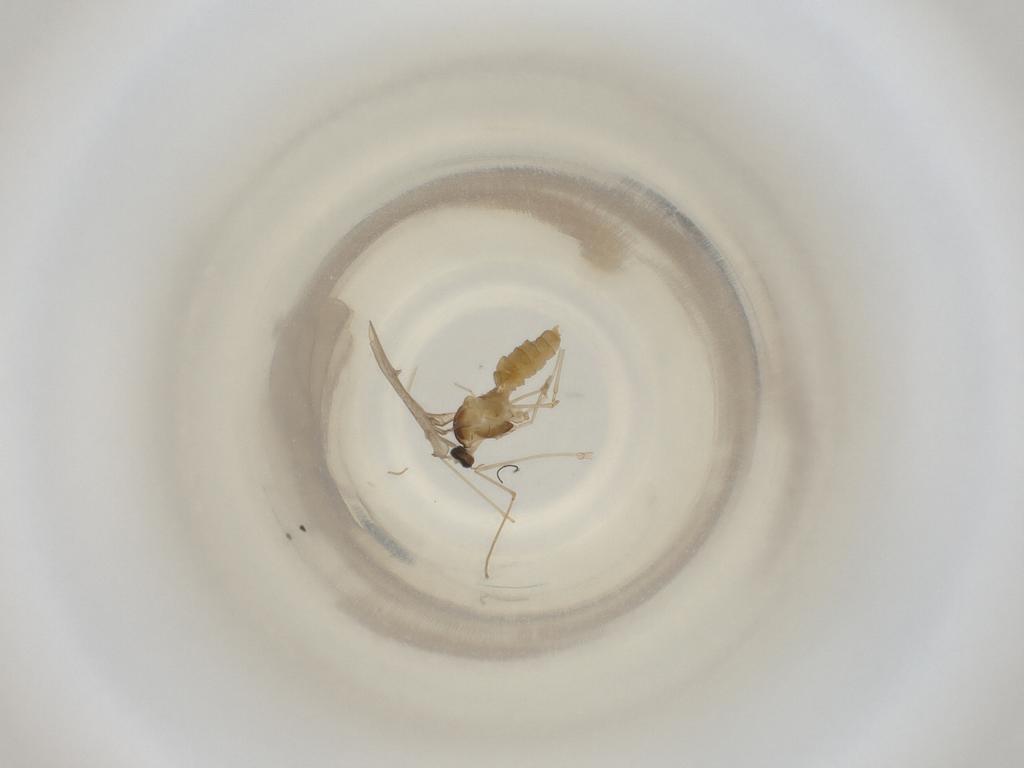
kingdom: Animalia
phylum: Arthropoda
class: Insecta
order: Diptera
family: Cecidomyiidae
